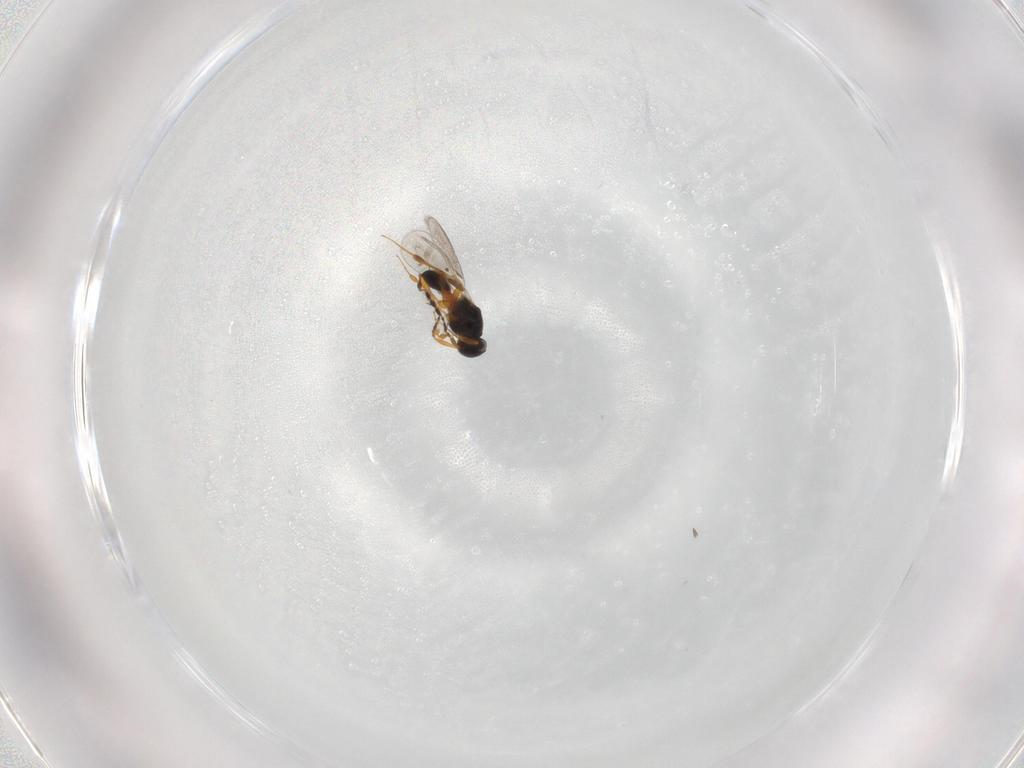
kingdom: Animalia
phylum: Arthropoda
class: Insecta
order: Hymenoptera
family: Platygastridae
